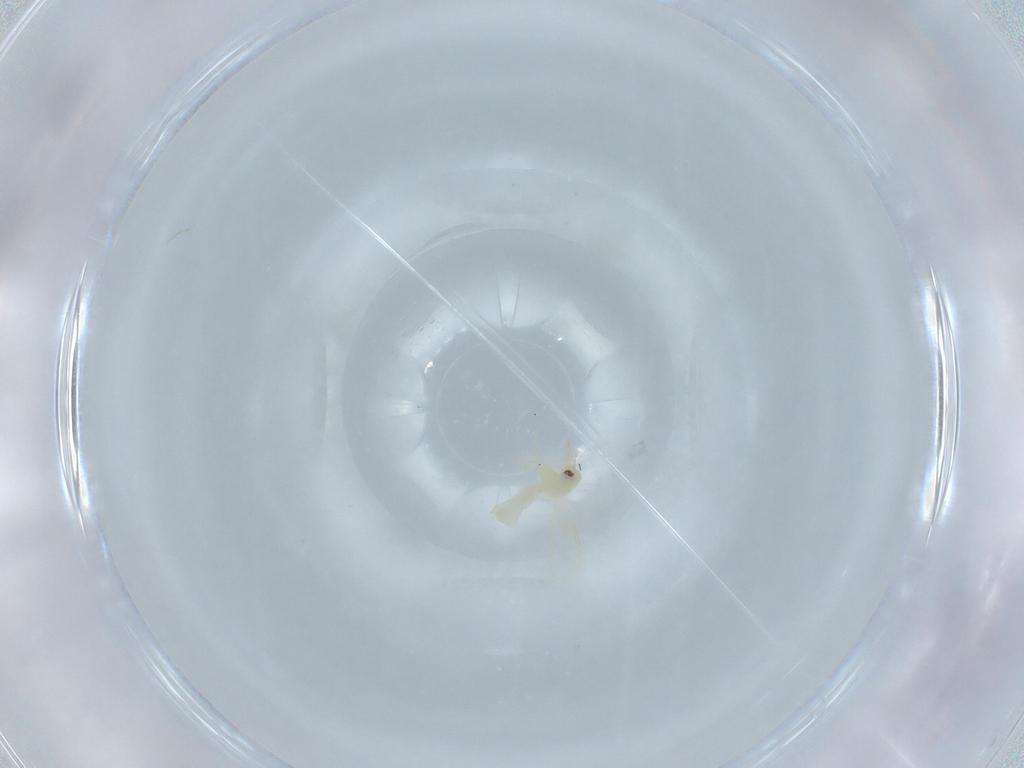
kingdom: Animalia
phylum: Arthropoda
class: Insecta
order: Hemiptera
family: Aleyrodidae
